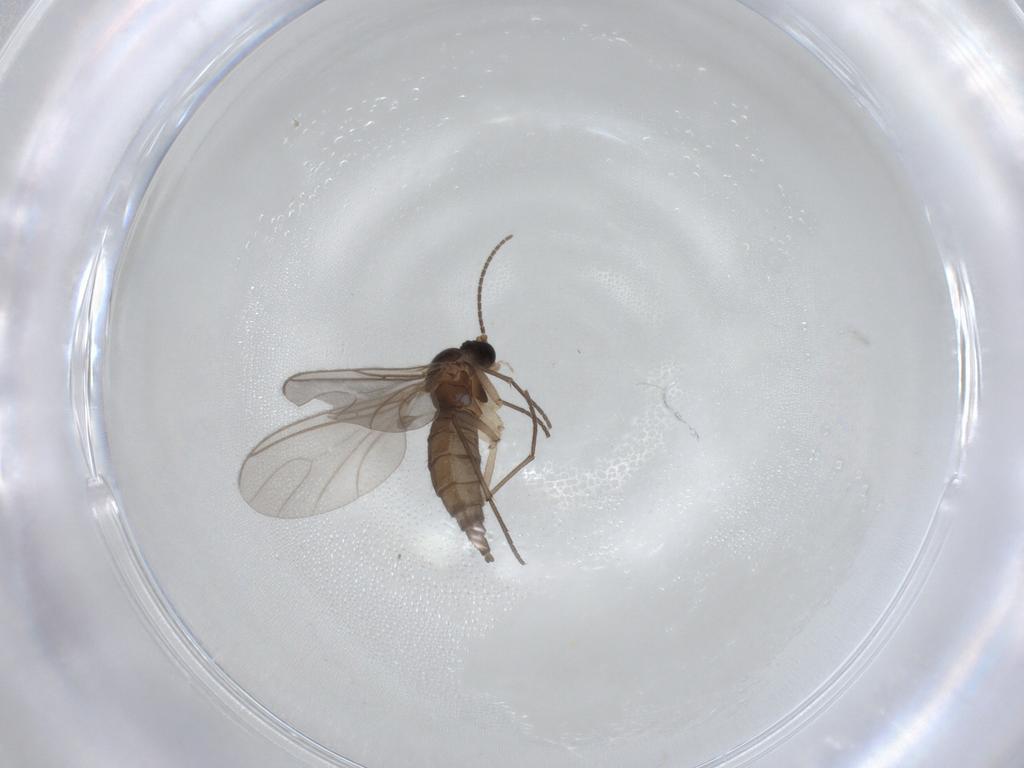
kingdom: Animalia
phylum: Arthropoda
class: Insecta
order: Diptera
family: Sciaridae
